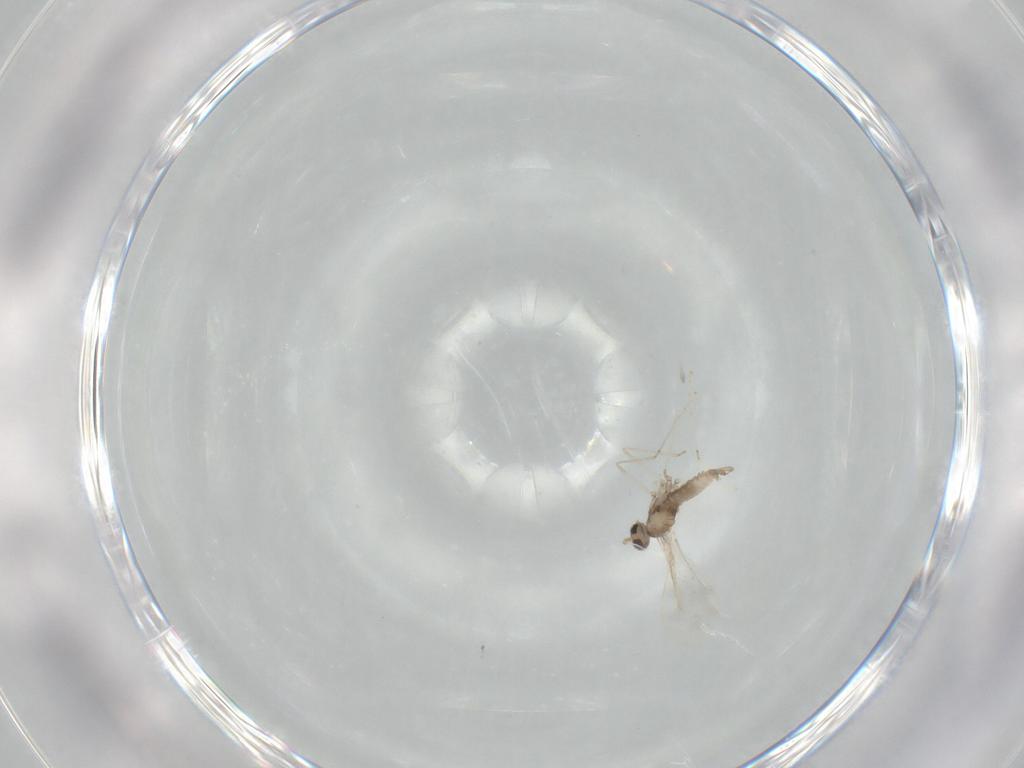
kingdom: Animalia
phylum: Arthropoda
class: Insecta
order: Diptera
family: Cecidomyiidae
